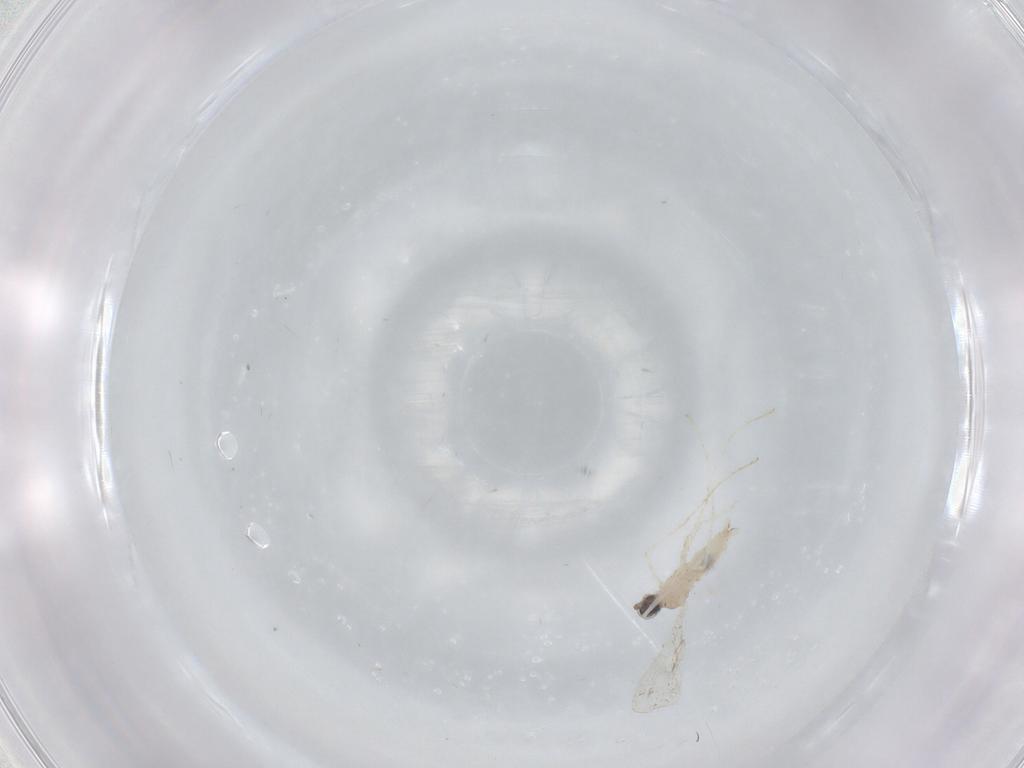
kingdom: Animalia
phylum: Arthropoda
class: Insecta
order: Diptera
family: Cecidomyiidae
